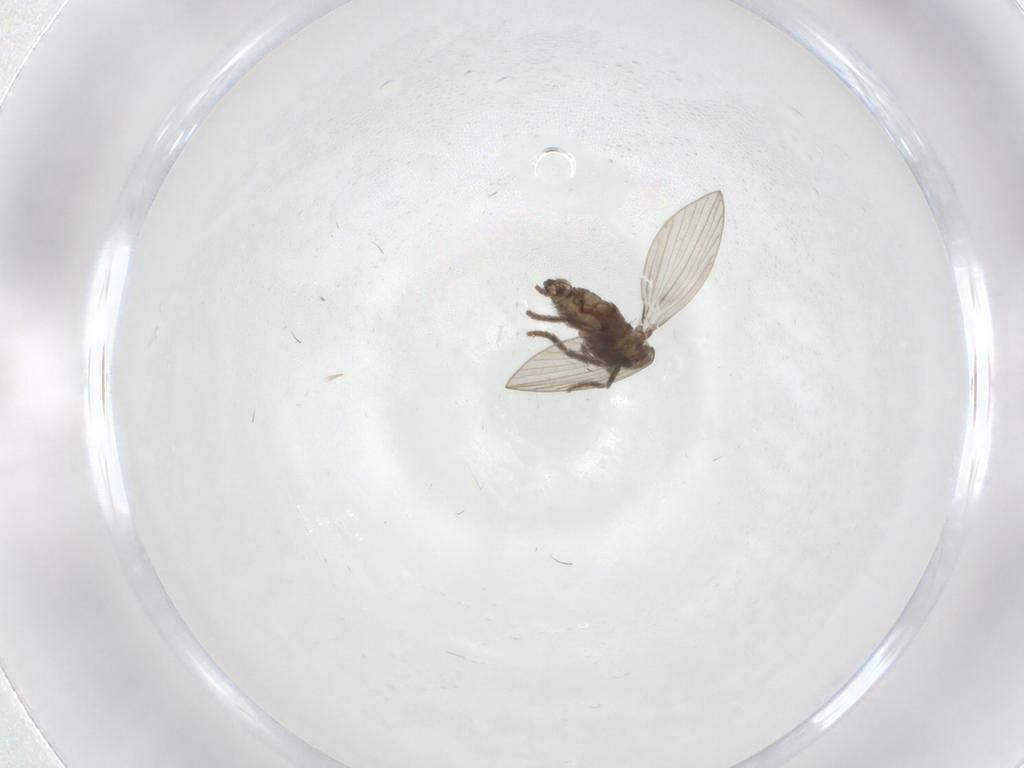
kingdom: Animalia
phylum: Arthropoda
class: Insecta
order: Diptera
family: Psychodidae
